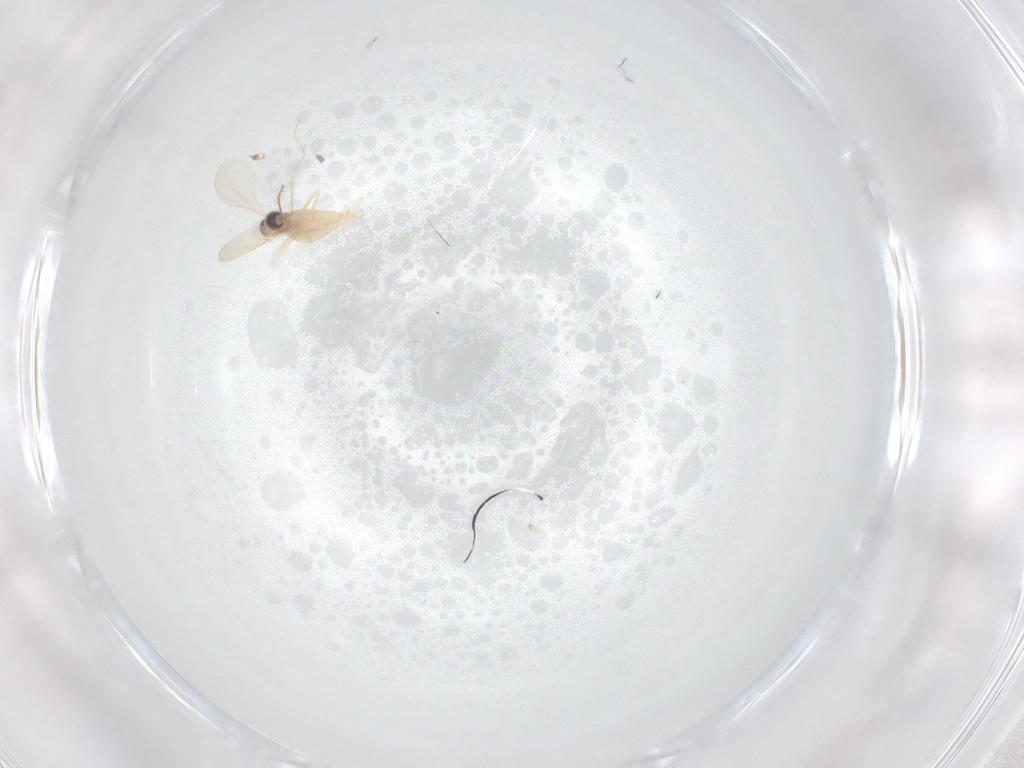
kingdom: Animalia
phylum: Arthropoda
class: Insecta
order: Diptera
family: Cecidomyiidae
